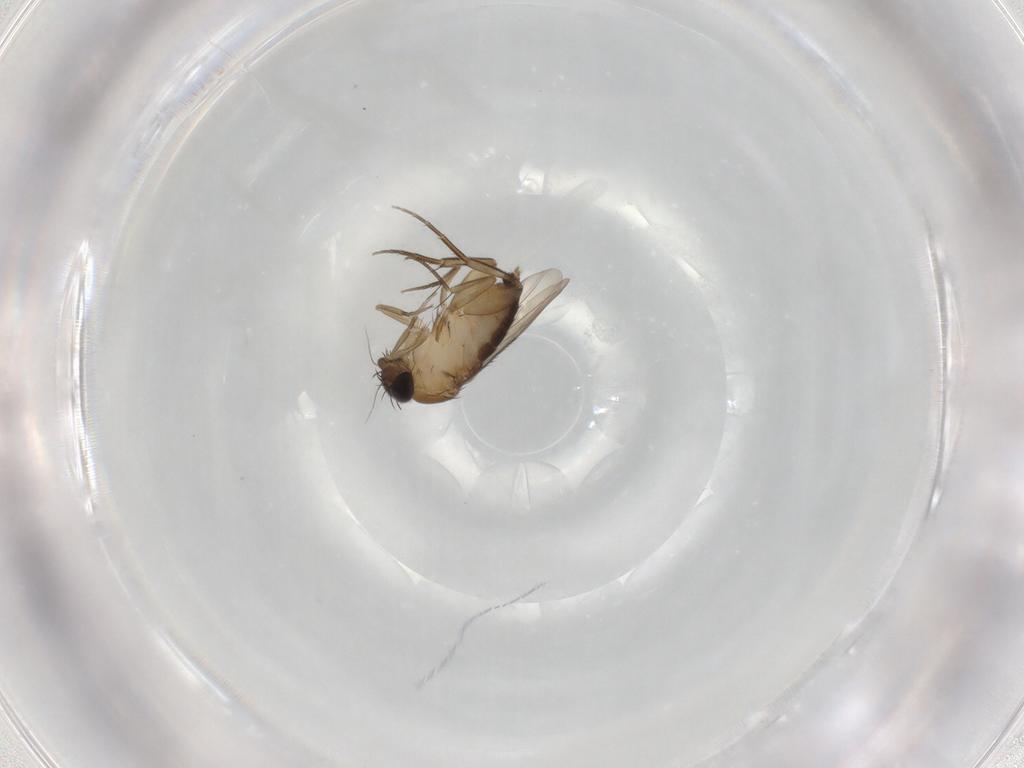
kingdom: Animalia
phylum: Arthropoda
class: Insecta
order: Diptera
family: Phoridae
